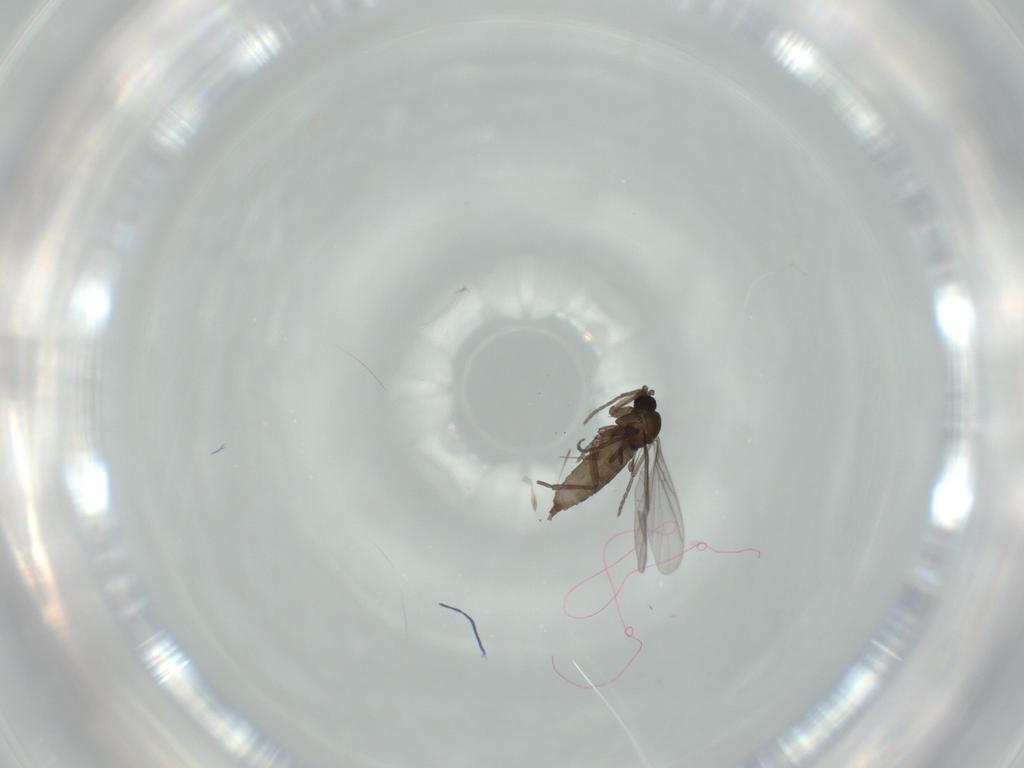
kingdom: Animalia
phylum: Arthropoda
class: Insecta
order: Diptera
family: Sciaridae
